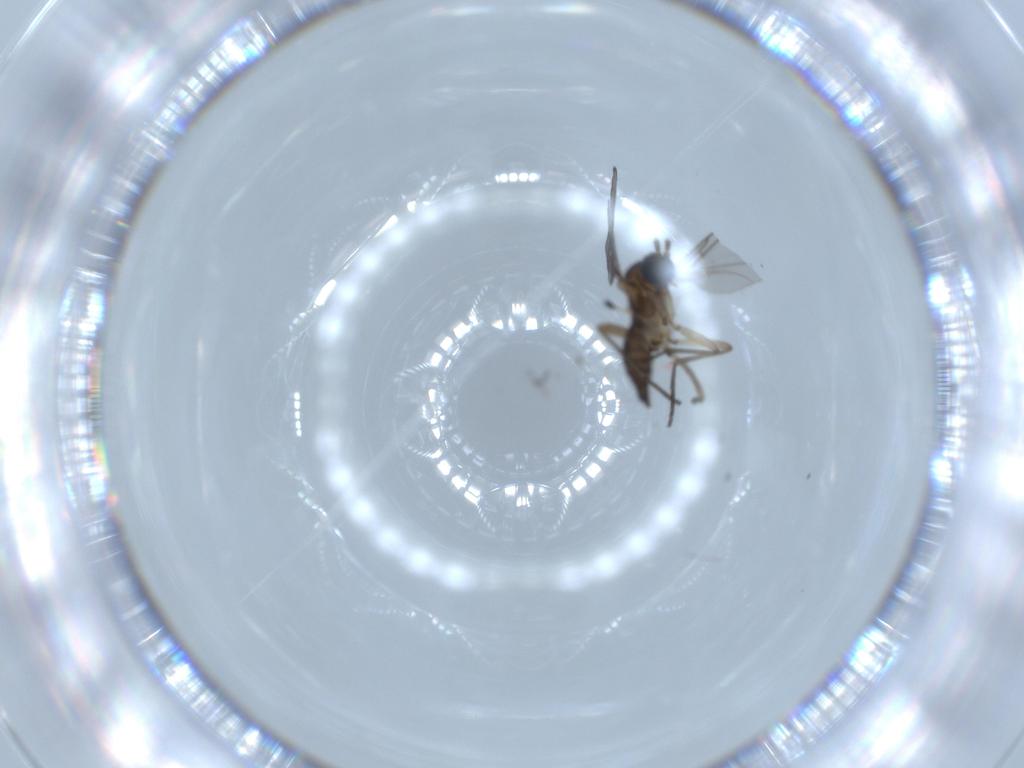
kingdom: Animalia
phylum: Arthropoda
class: Insecta
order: Diptera
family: Sciaridae
